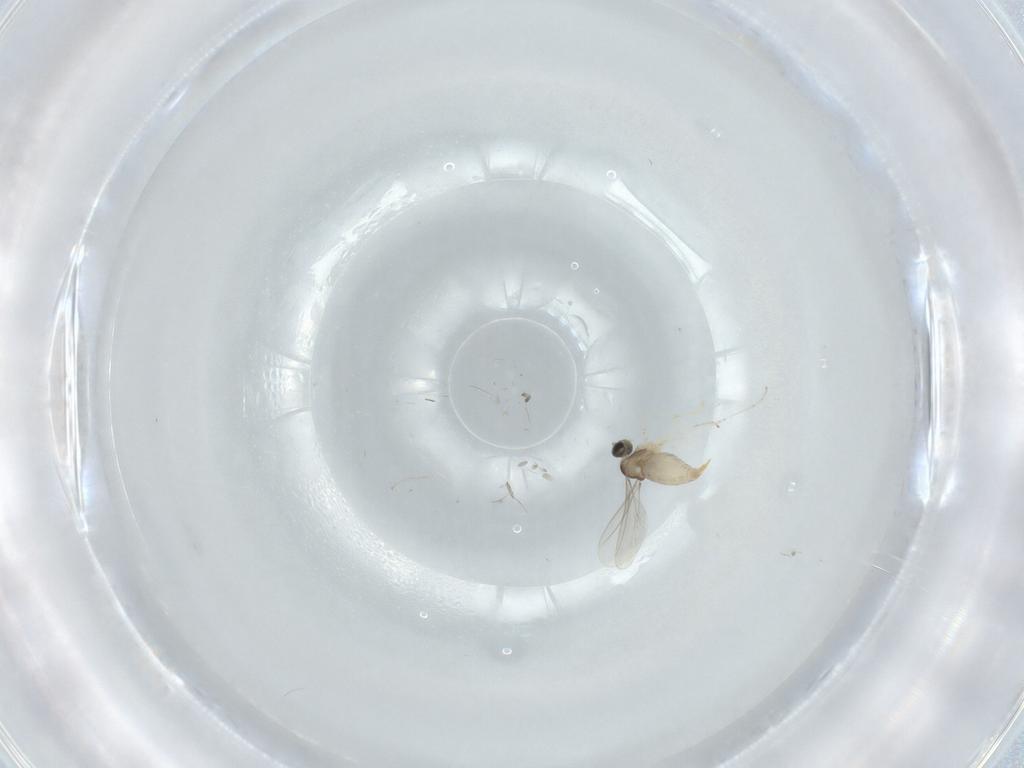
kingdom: Animalia
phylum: Arthropoda
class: Insecta
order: Diptera
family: Cecidomyiidae
